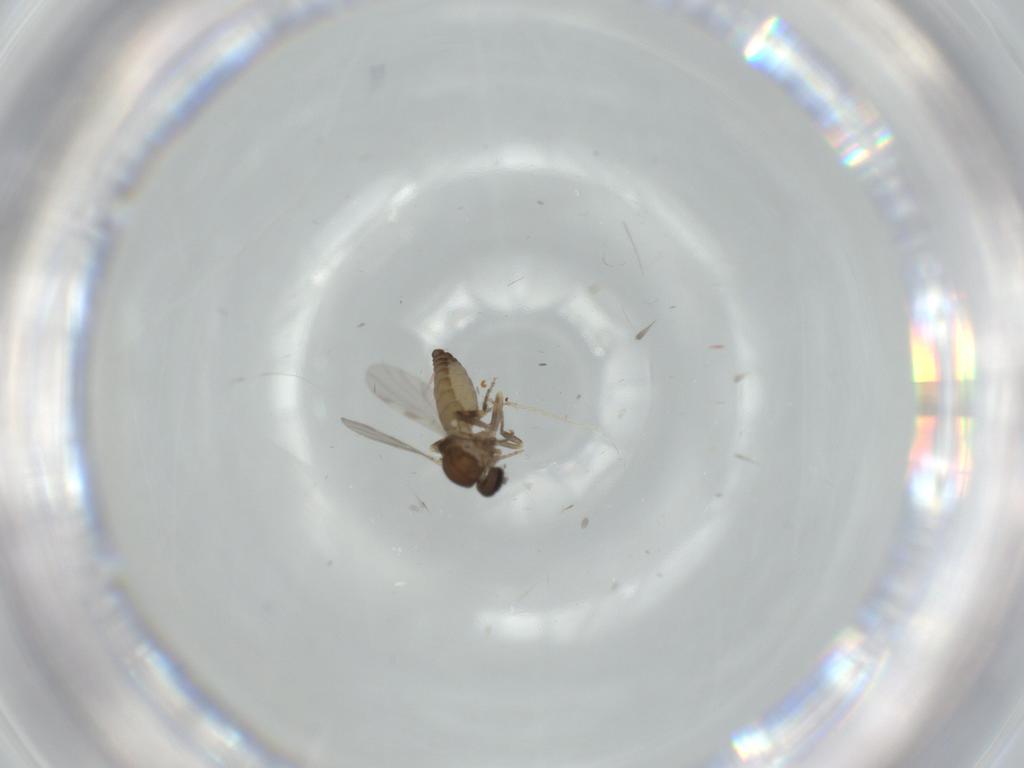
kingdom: Animalia
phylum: Arthropoda
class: Insecta
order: Diptera
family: Ceratopogonidae
